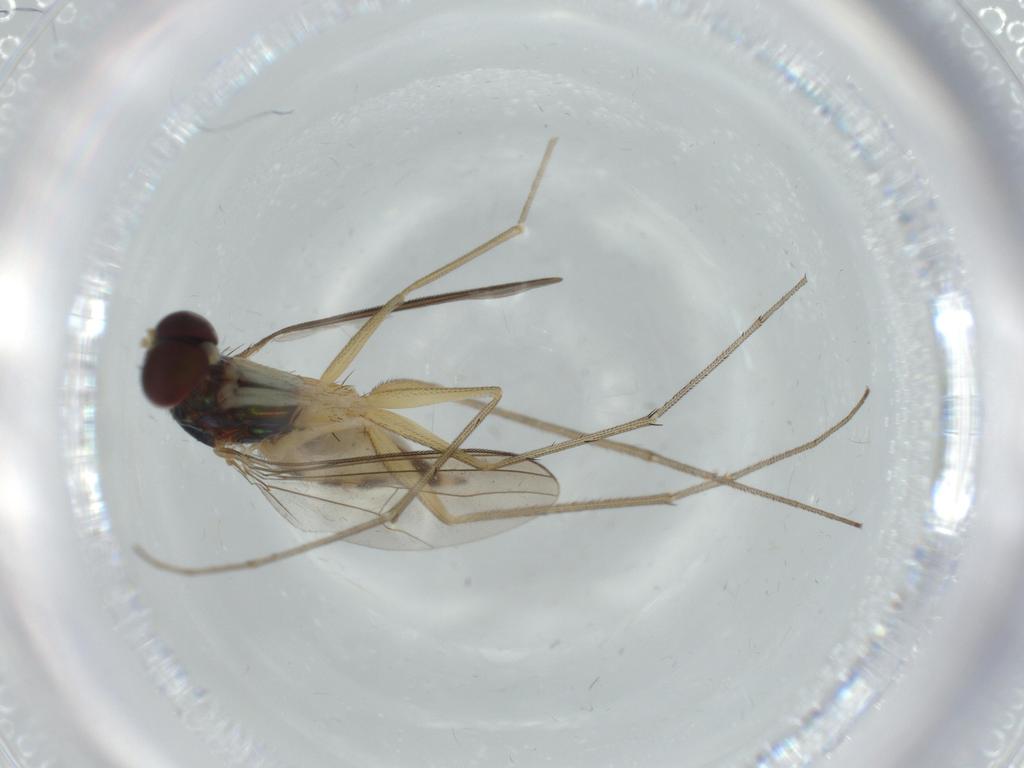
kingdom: Animalia
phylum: Arthropoda
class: Insecta
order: Diptera
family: Dolichopodidae
